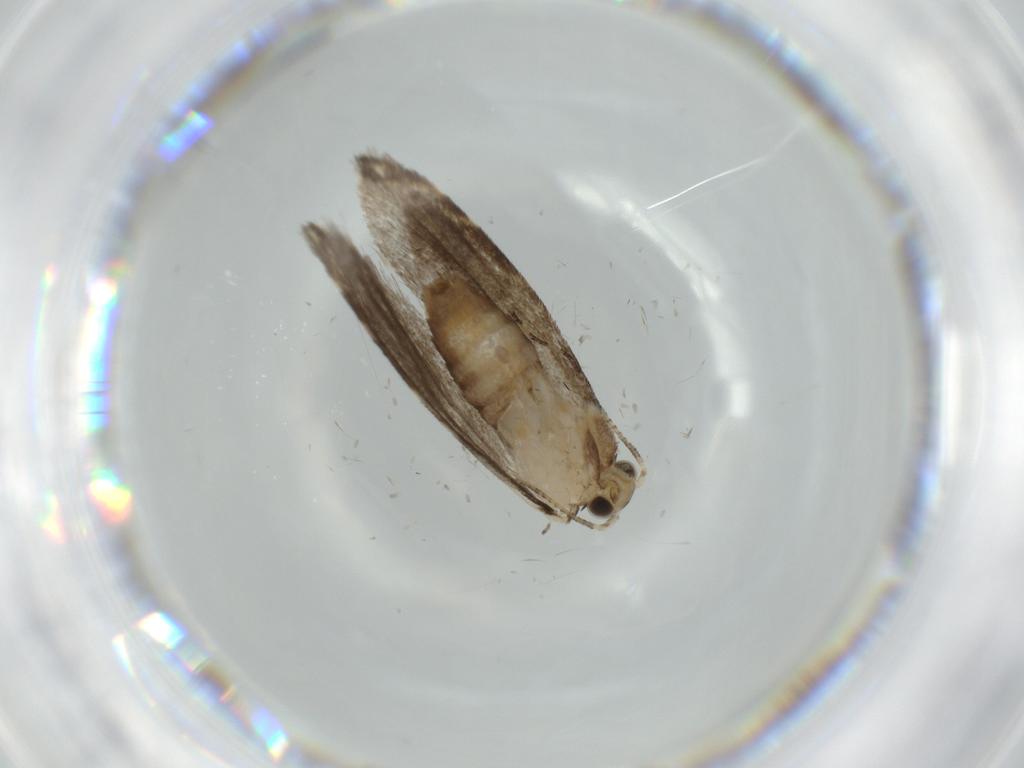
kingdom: Animalia
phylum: Arthropoda
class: Insecta
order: Lepidoptera
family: Tineidae
